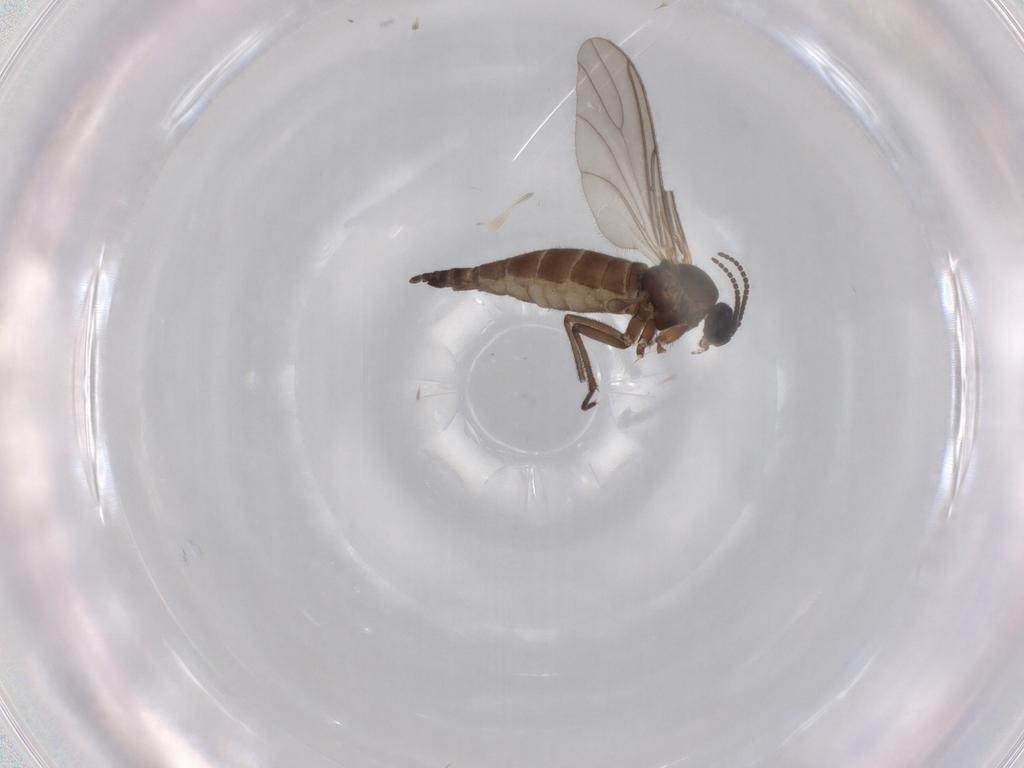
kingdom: Animalia
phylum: Arthropoda
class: Insecta
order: Diptera
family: Sciaridae
